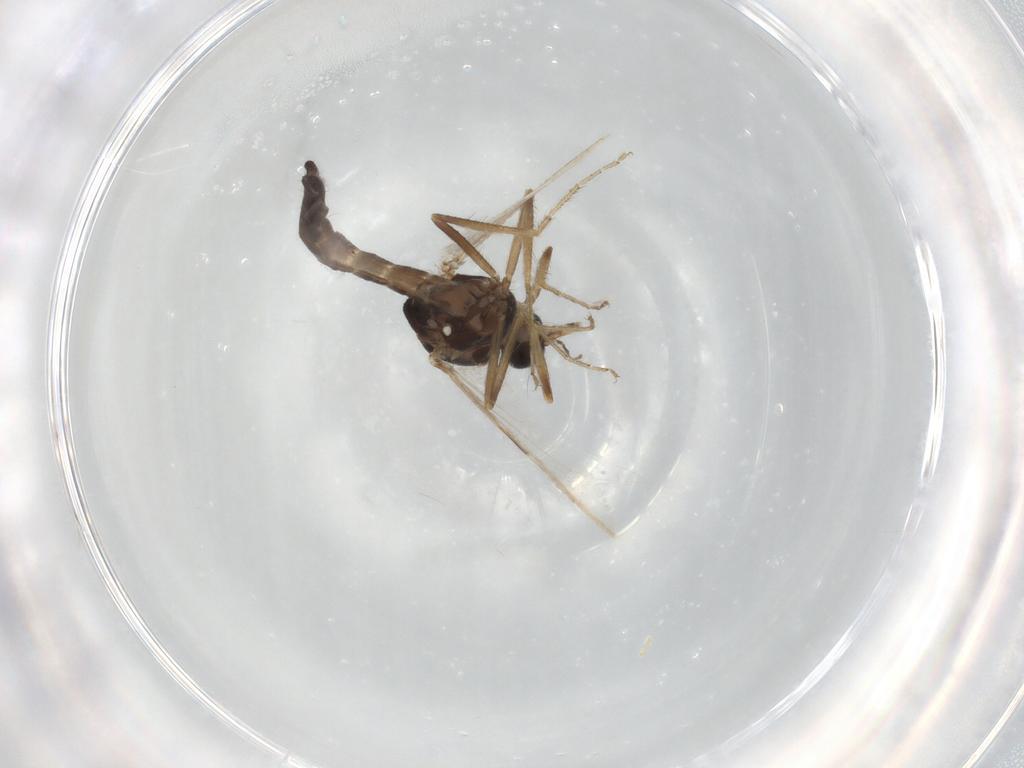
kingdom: Animalia
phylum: Arthropoda
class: Insecta
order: Diptera
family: Ceratopogonidae
